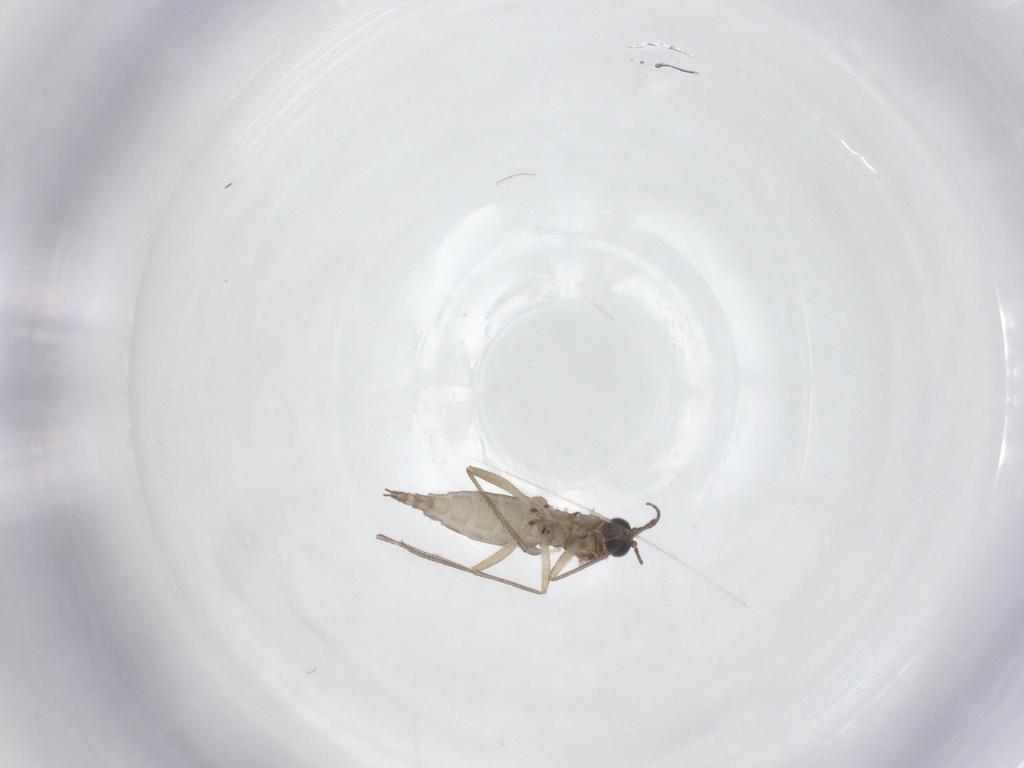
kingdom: Animalia
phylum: Arthropoda
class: Insecta
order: Diptera
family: Sciaridae
